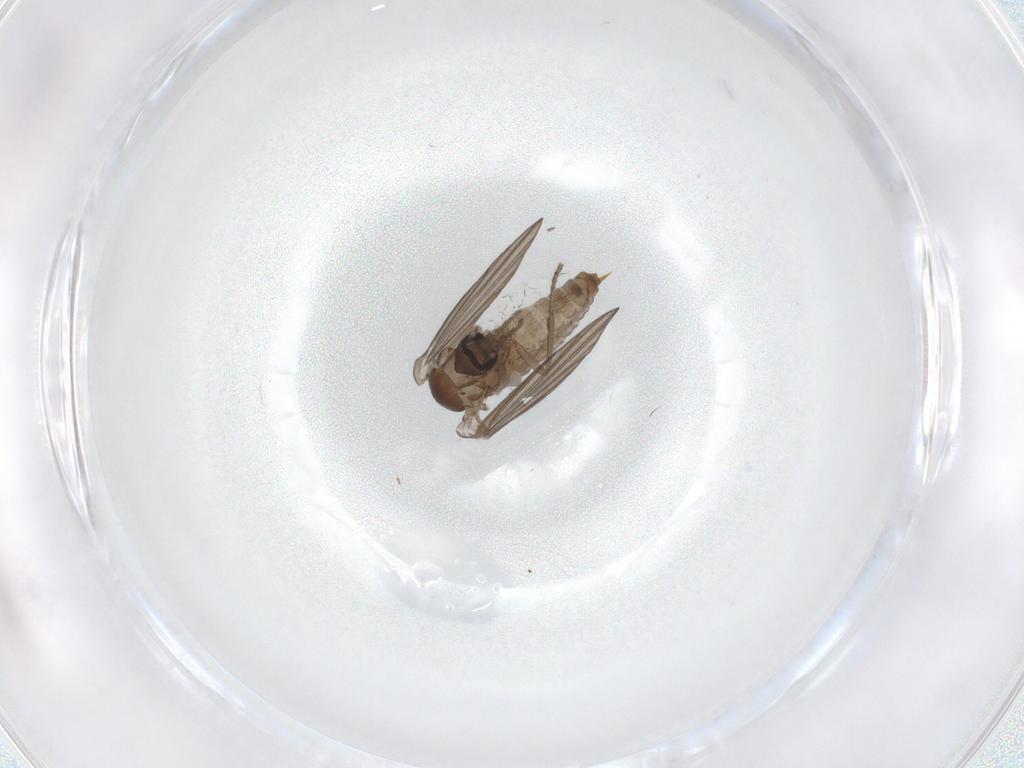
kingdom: Animalia
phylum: Arthropoda
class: Insecta
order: Diptera
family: Psychodidae
